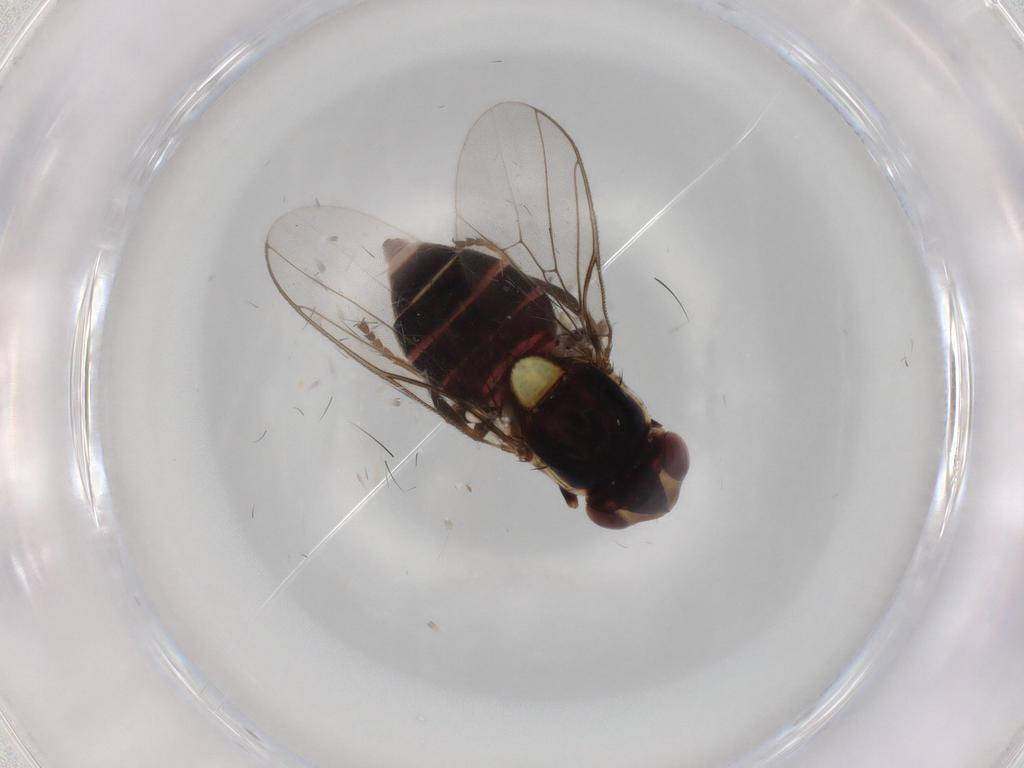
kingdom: Animalia
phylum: Arthropoda
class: Insecta
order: Diptera
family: Chloropidae
